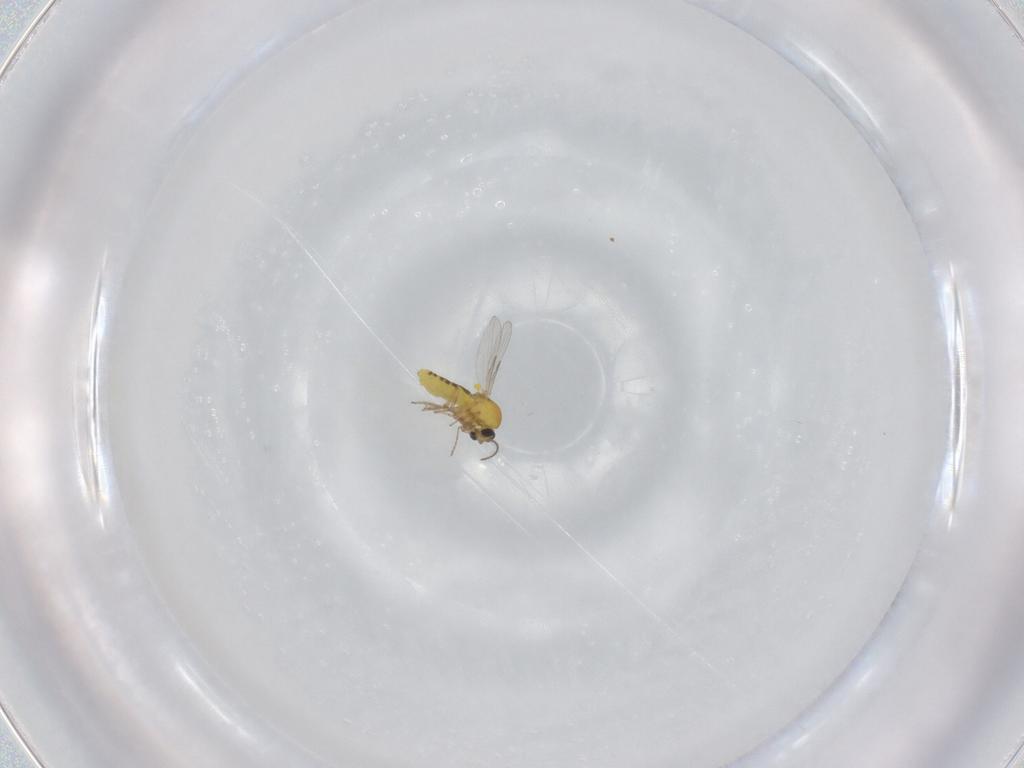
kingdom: Animalia
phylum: Arthropoda
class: Insecta
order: Diptera
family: Ceratopogonidae
